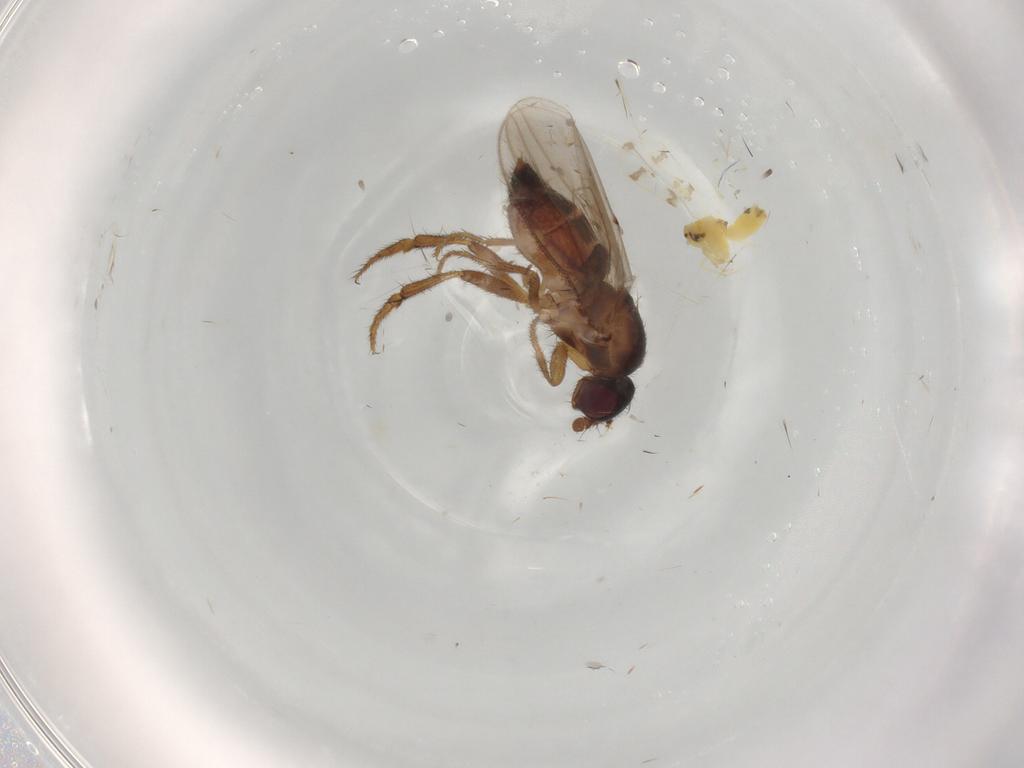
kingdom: Animalia
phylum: Arthropoda
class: Insecta
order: Hemiptera
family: Aleyrodidae
